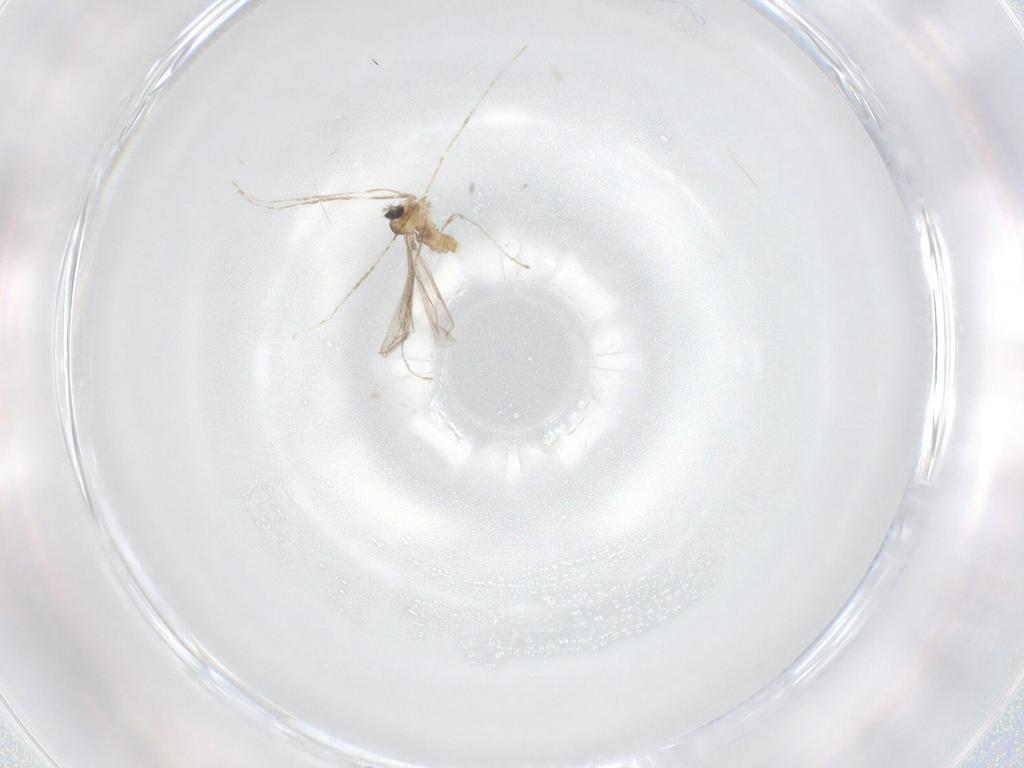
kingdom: Animalia
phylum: Arthropoda
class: Insecta
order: Diptera
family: Cecidomyiidae
